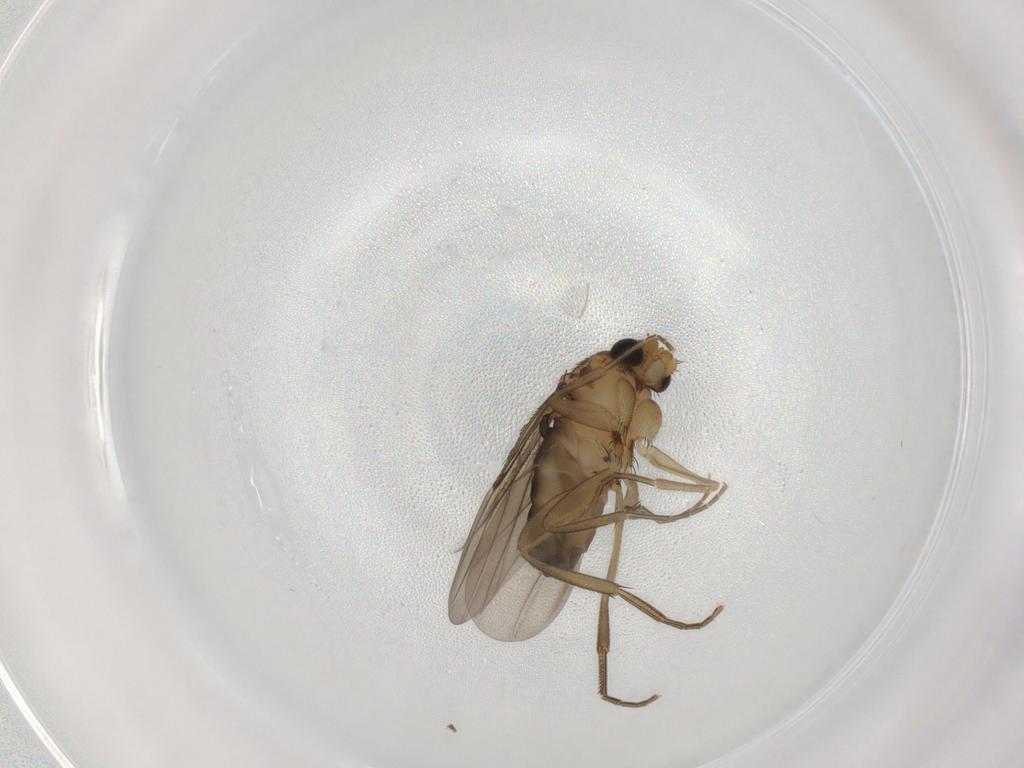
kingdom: Animalia
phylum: Arthropoda
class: Insecta
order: Diptera
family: Phoridae
